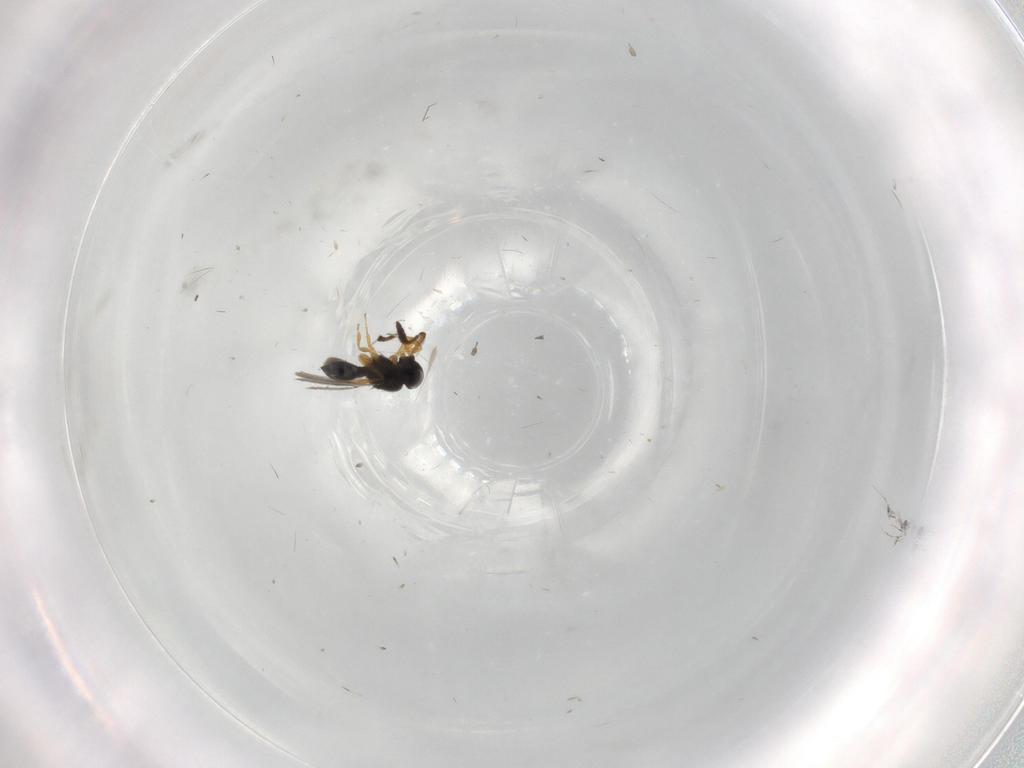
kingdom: Animalia
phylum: Arthropoda
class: Insecta
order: Hymenoptera
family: Scelionidae
